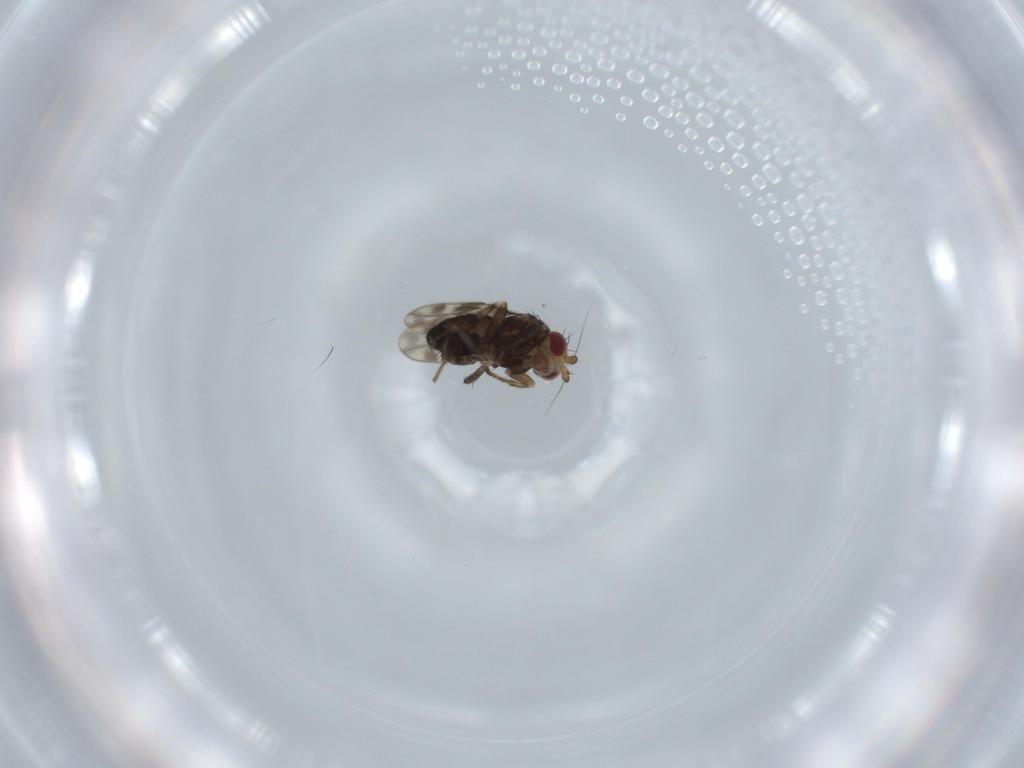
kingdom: Animalia
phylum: Arthropoda
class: Insecta
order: Diptera
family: Sphaeroceridae
